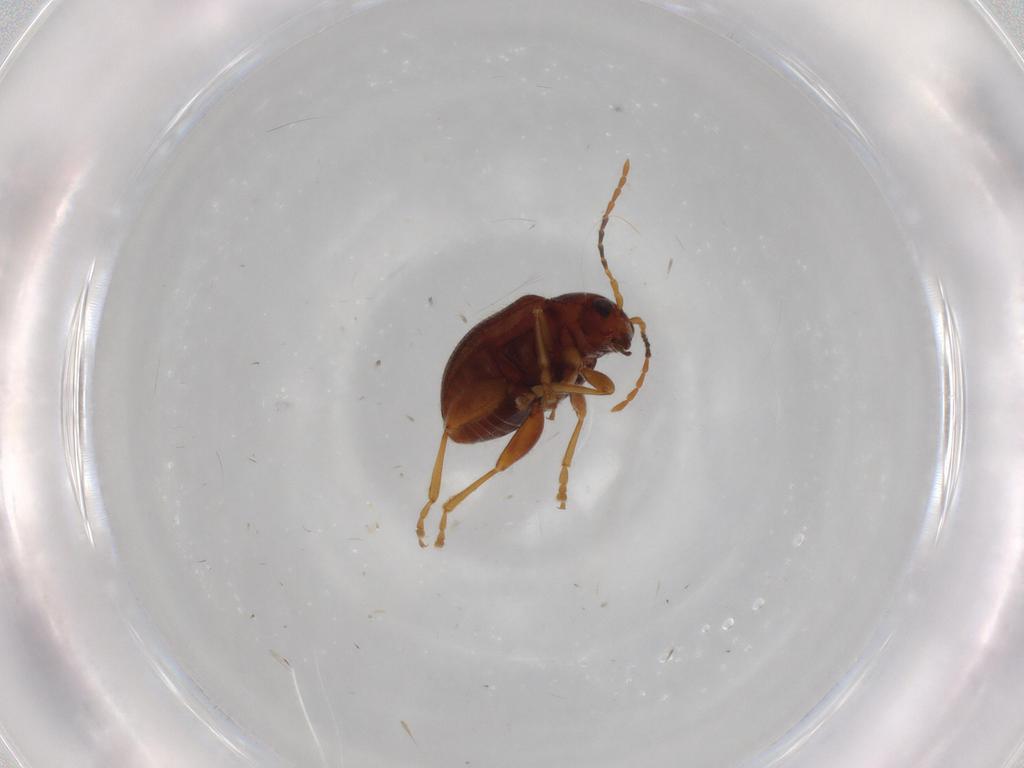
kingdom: Animalia
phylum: Arthropoda
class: Insecta
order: Coleoptera
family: Chrysomelidae
